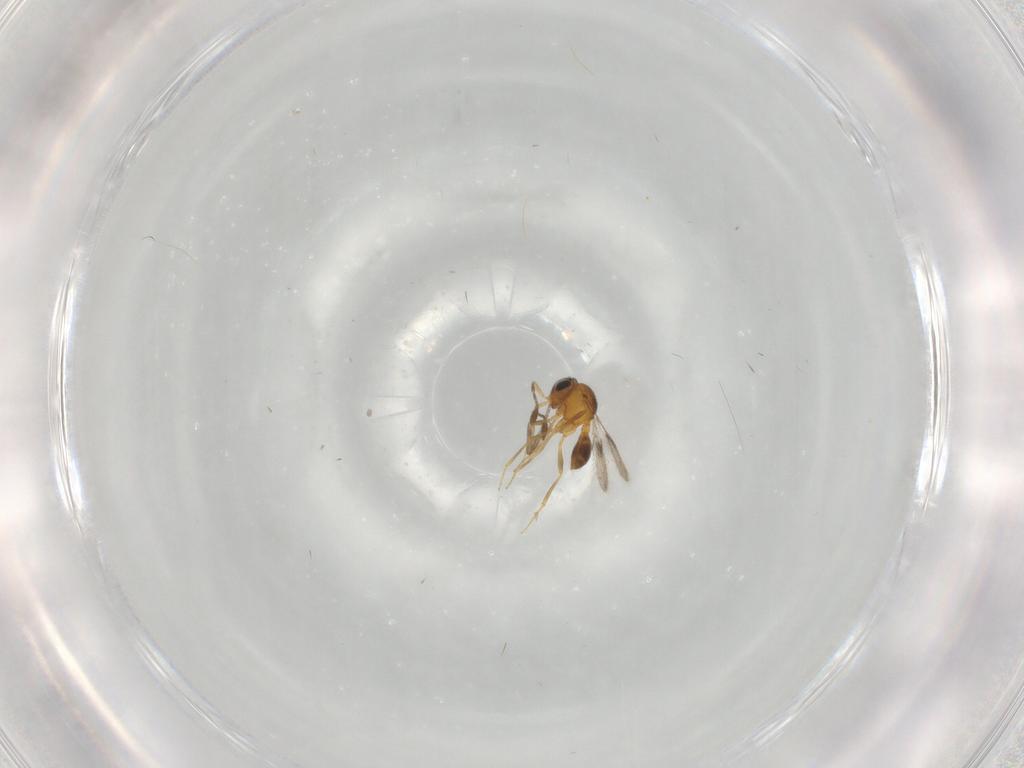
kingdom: Animalia
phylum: Arthropoda
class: Insecta
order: Hymenoptera
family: Scelionidae
